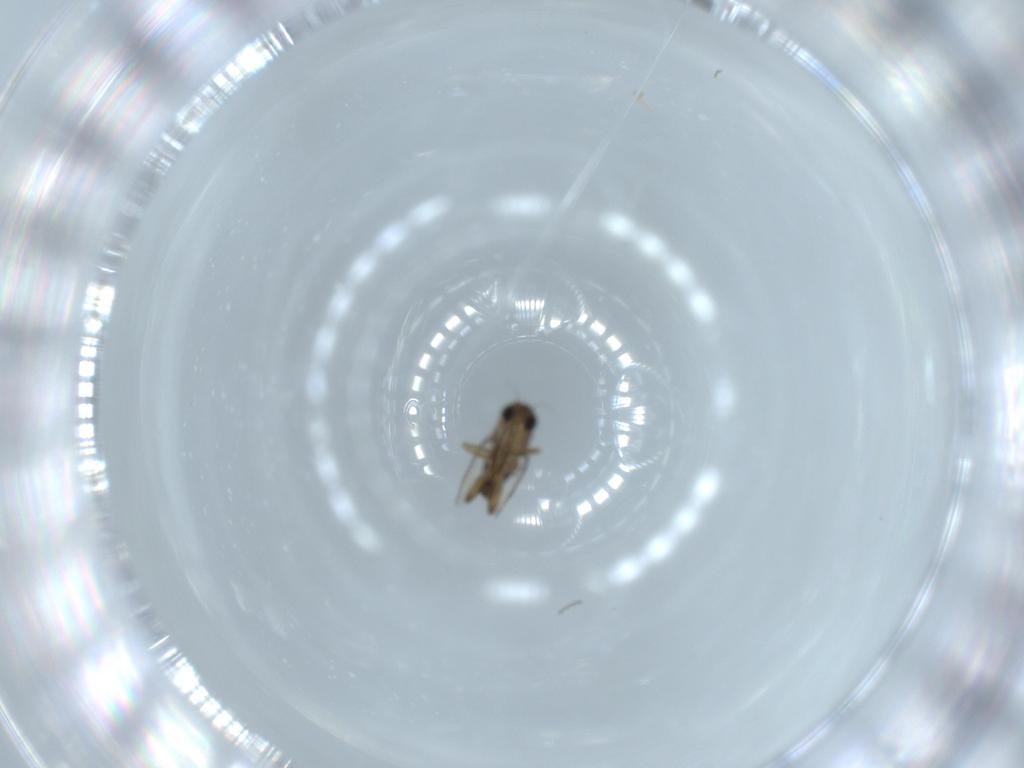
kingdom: Animalia
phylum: Arthropoda
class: Insecta
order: Diptera
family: Phoridae
